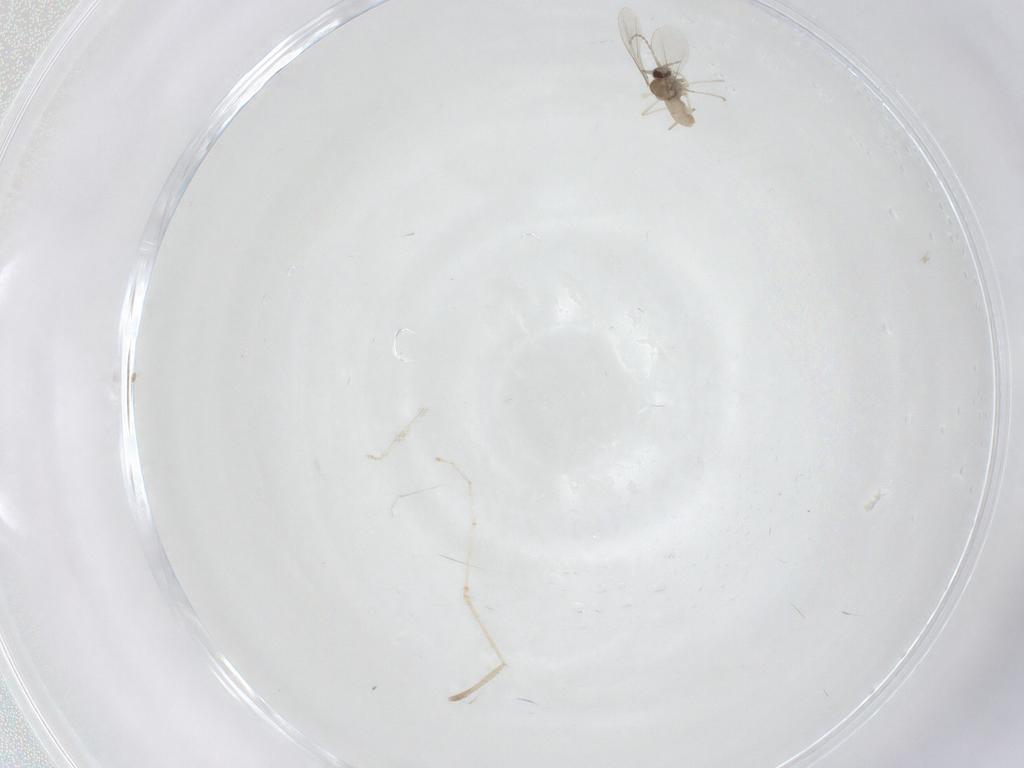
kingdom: Animalia
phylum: Arthropoda
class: Insecta
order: Diptera
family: Cecidomyiidae
